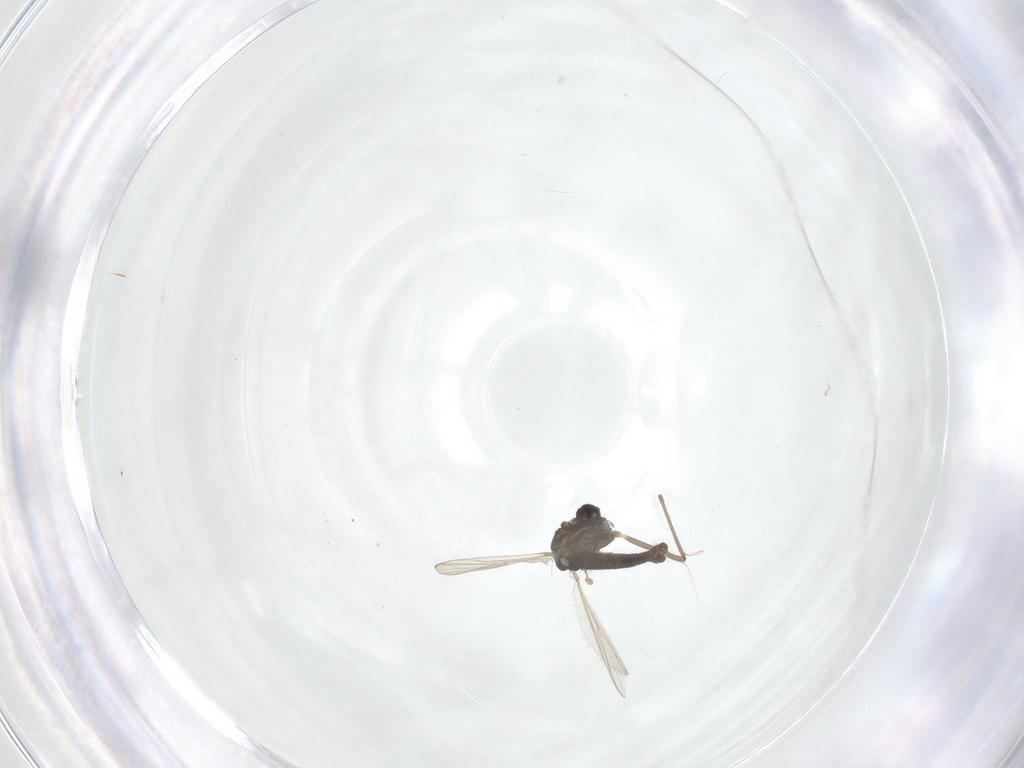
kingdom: Animalia
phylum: Arthropoda
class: Insecta
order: Diptera
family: Chironomidae
